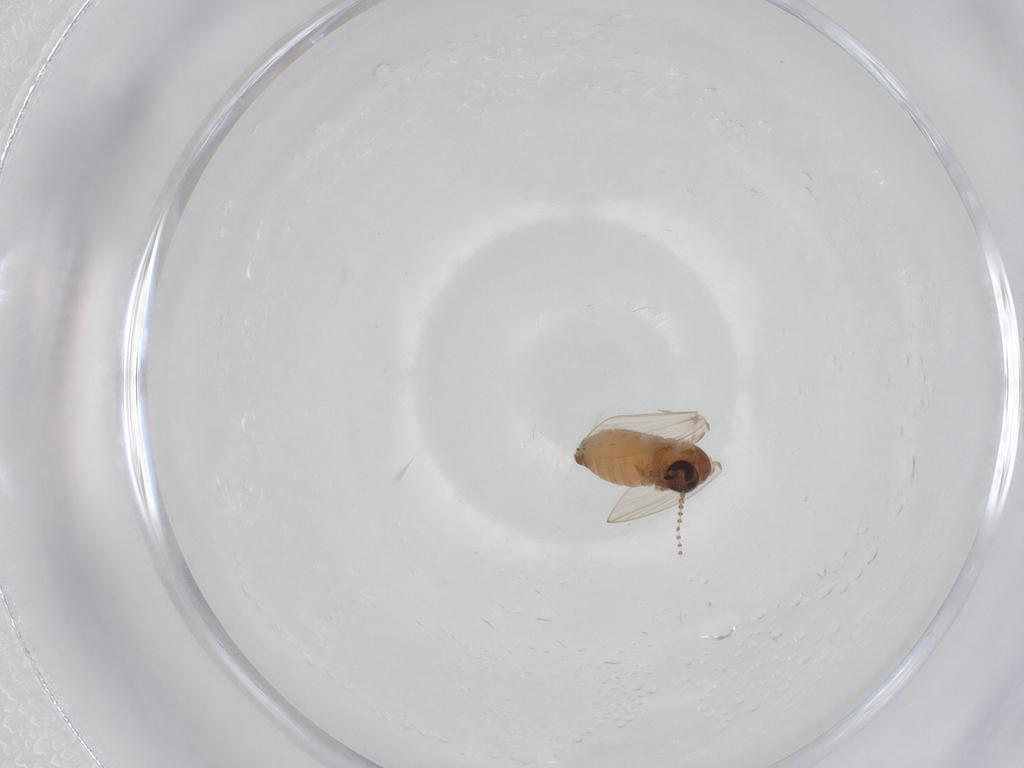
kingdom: Animalia
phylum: Arthropoda
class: Insecta
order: Diptera
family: Psychodidae
